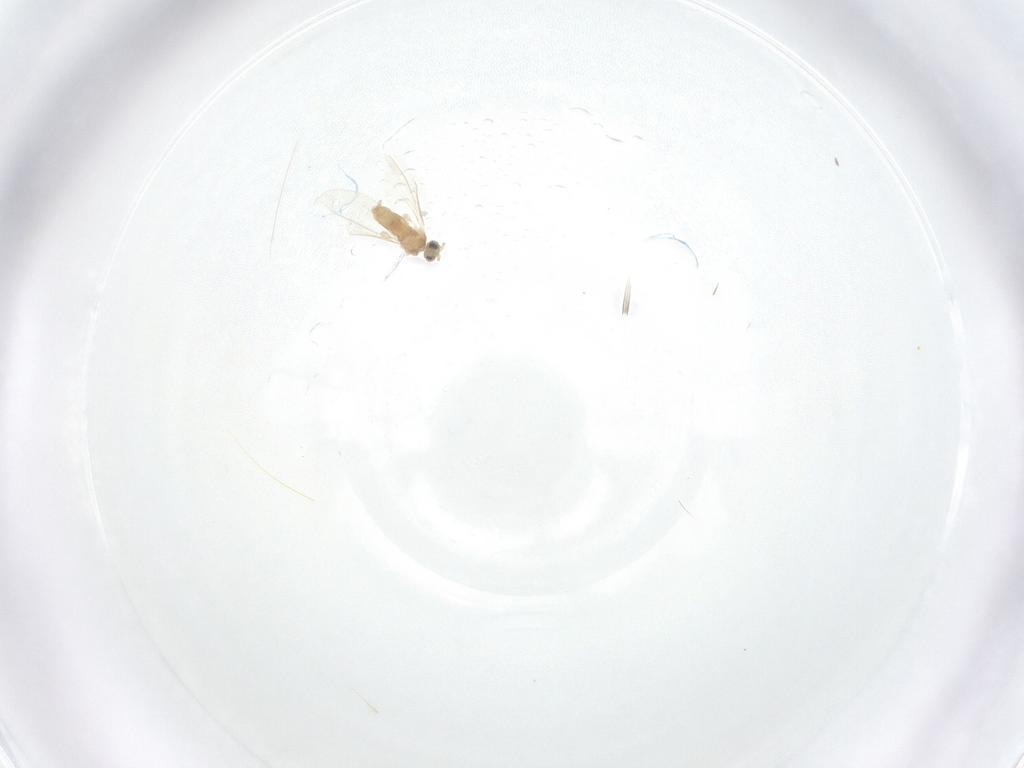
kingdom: Animalia
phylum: Arthropoda
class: Insecta
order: Diptera
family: Cecidomyiidae
